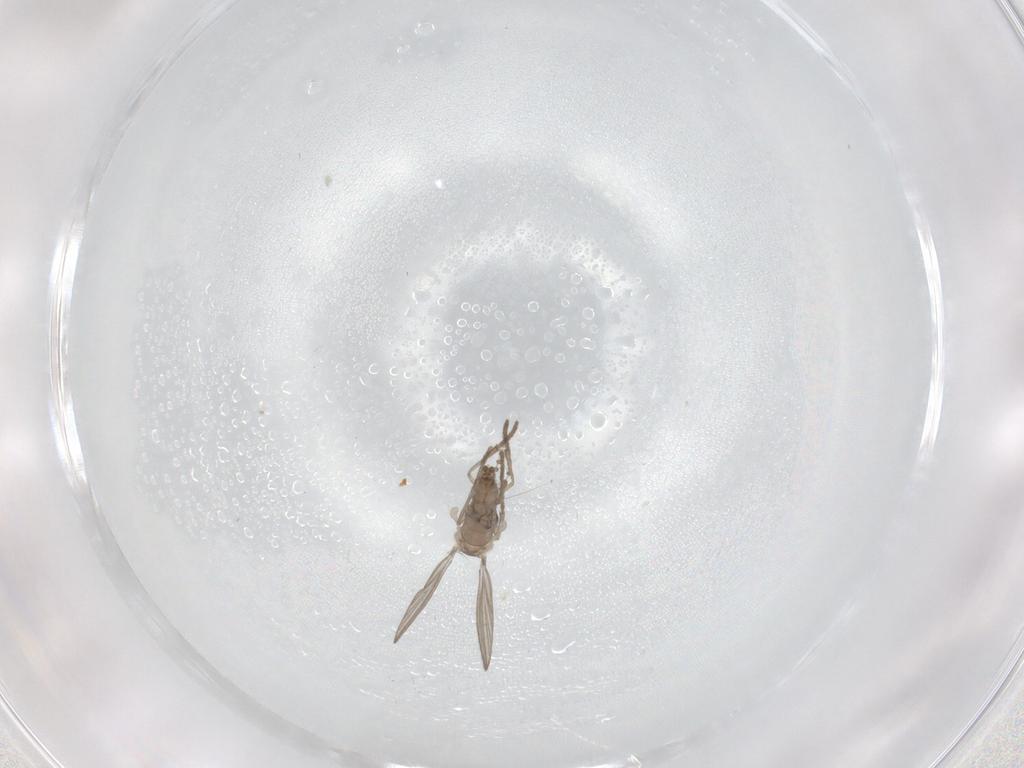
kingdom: Animalia
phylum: Arthropoda
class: Insecta
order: Diptera
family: Psychodidae
